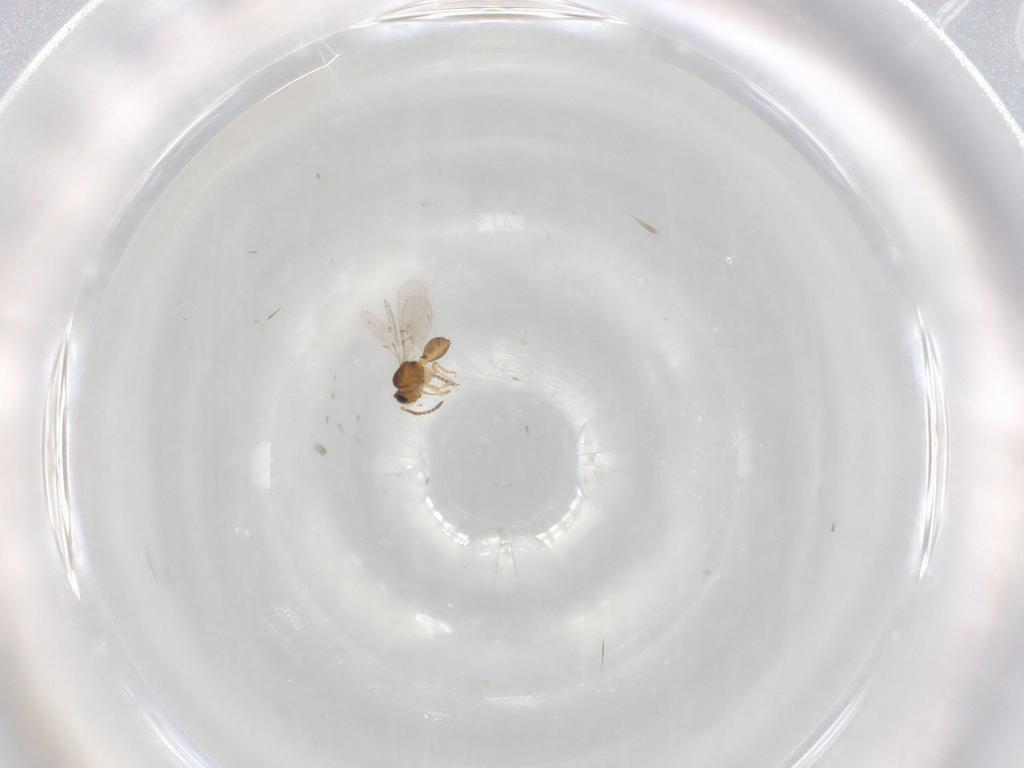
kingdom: Animalia
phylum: Arthropoda
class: Insecta
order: Hymenoptera
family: Scelionidae
